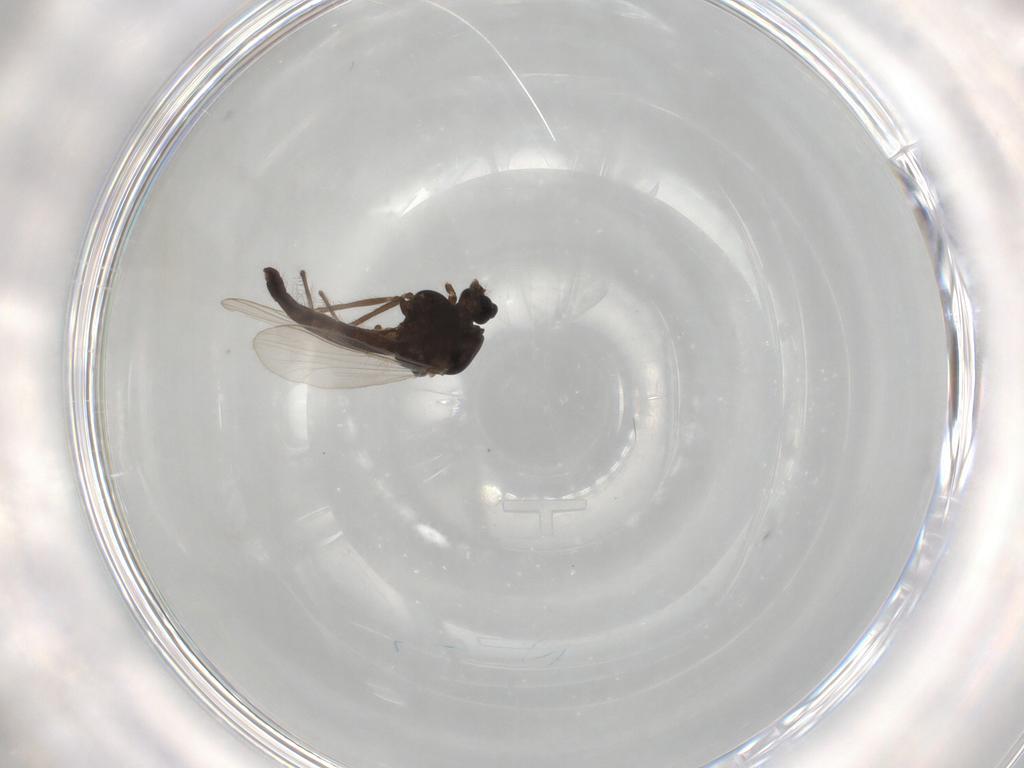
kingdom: Animalia
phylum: Arthropoda
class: Insecta
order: Diptera
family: Chironomidae
